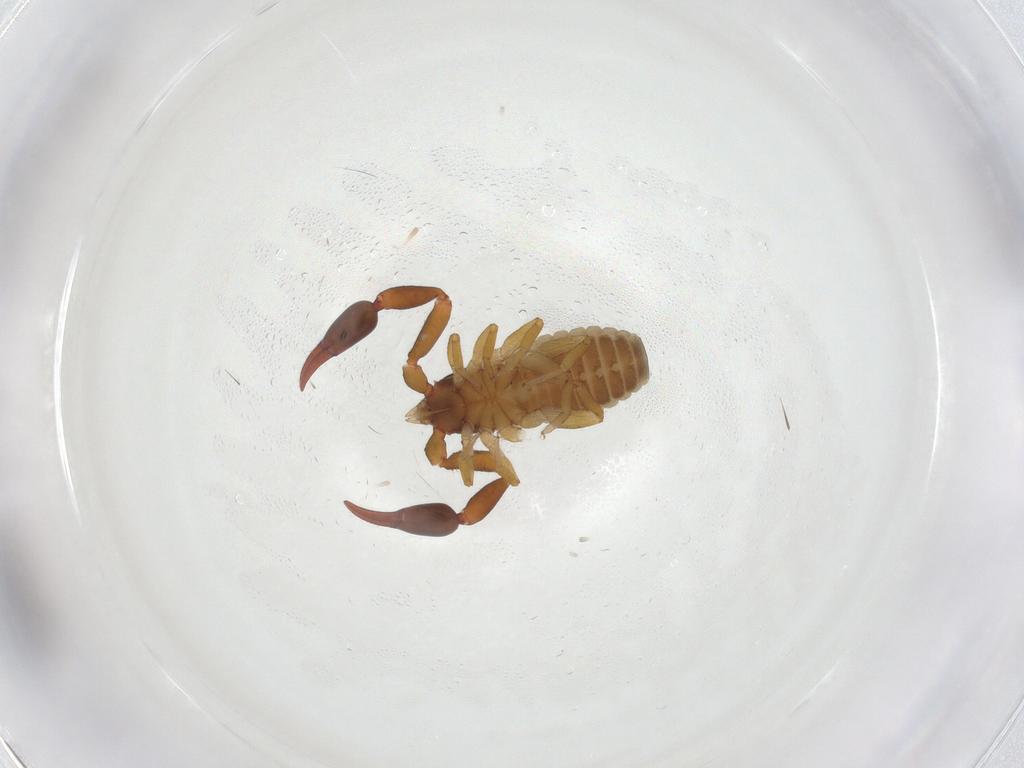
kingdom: Animalia
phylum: Arthropoda
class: Arachnida
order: Pseudoscorpiones
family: Withiidae
